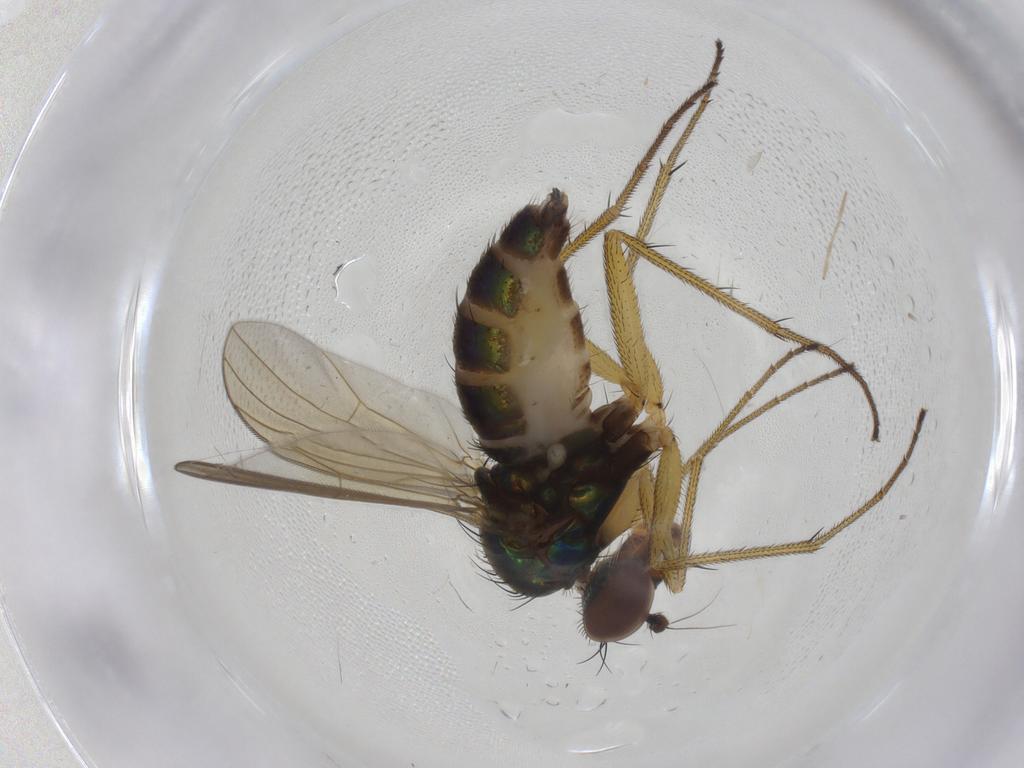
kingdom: Animalia
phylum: Arthropoda
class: Insecta
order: Diptera
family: Dolichopodidae
